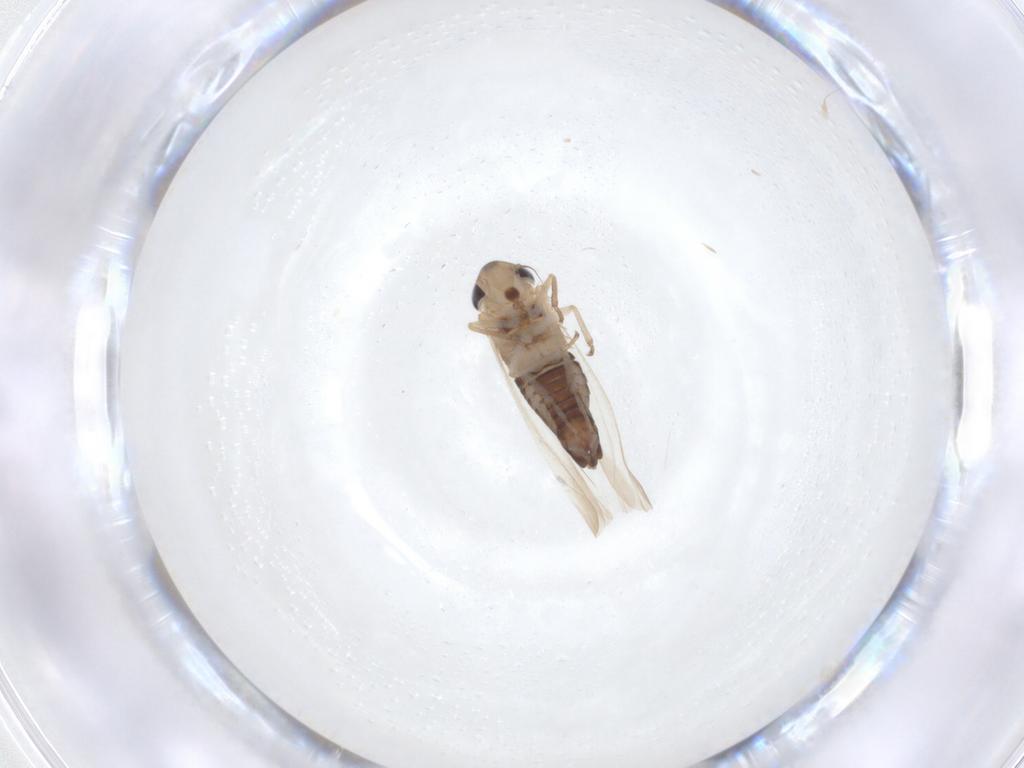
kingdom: Animalia
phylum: Arthropoda
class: Insecta
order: Hemiptera
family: Cicadellidae
